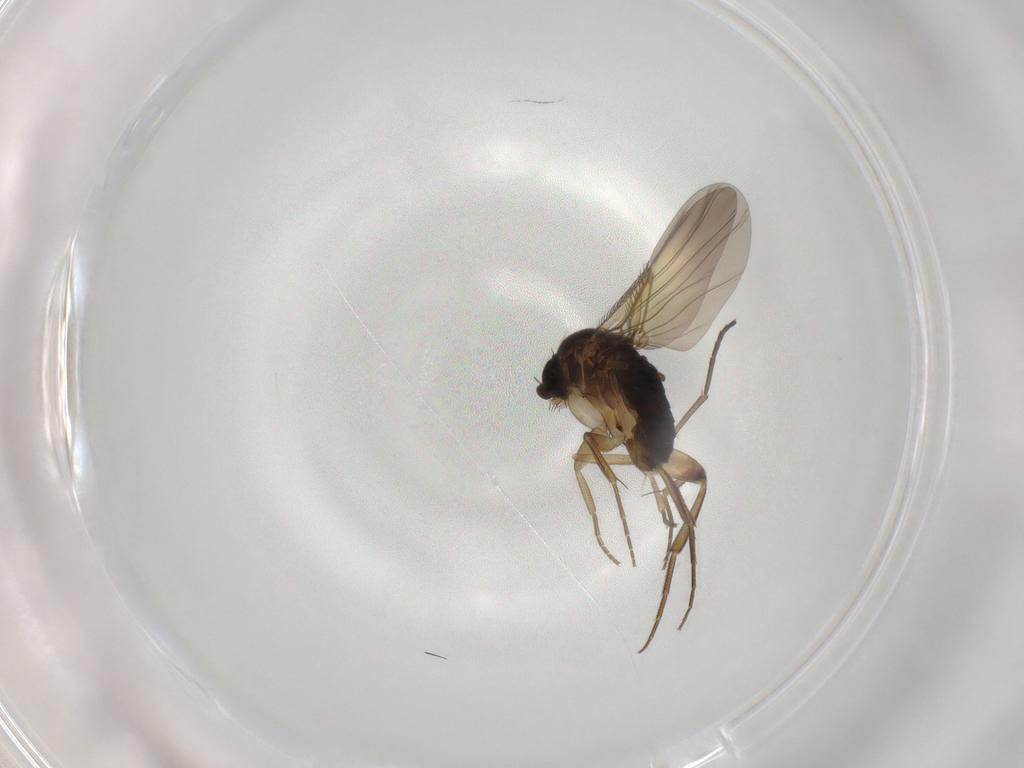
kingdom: Animalia
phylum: Arthropoda
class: Insecta
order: Diptera
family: Phoridae
